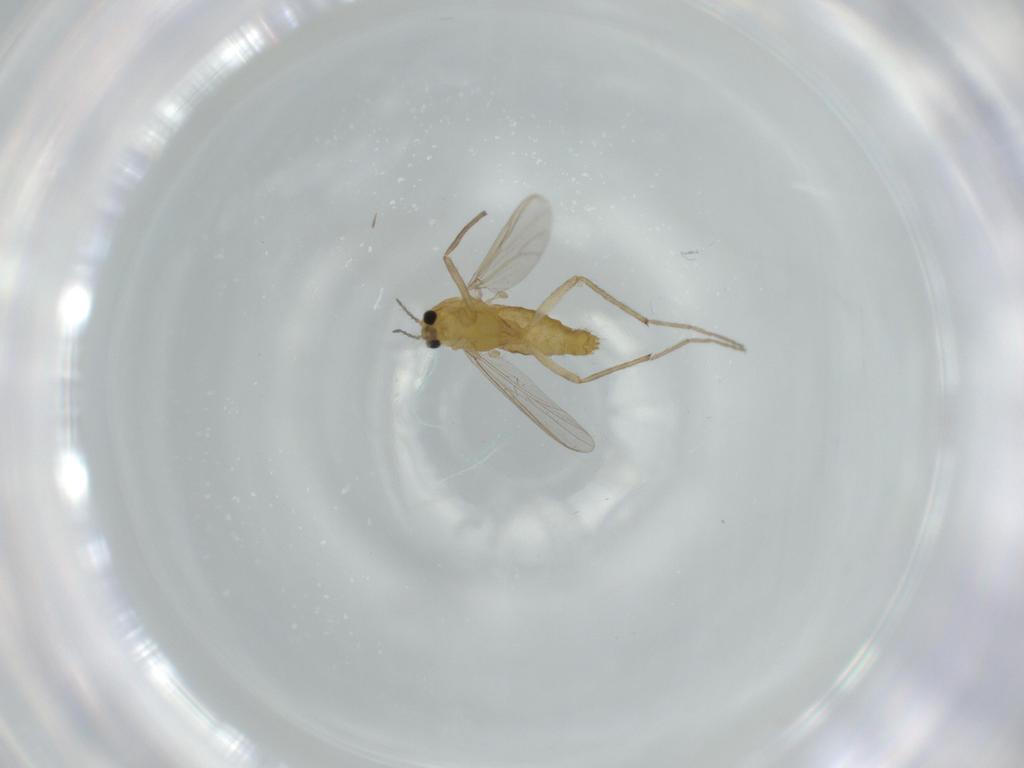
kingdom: Animalia
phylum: Arthropoda
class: Insecta
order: Diptera
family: Chironomidae
